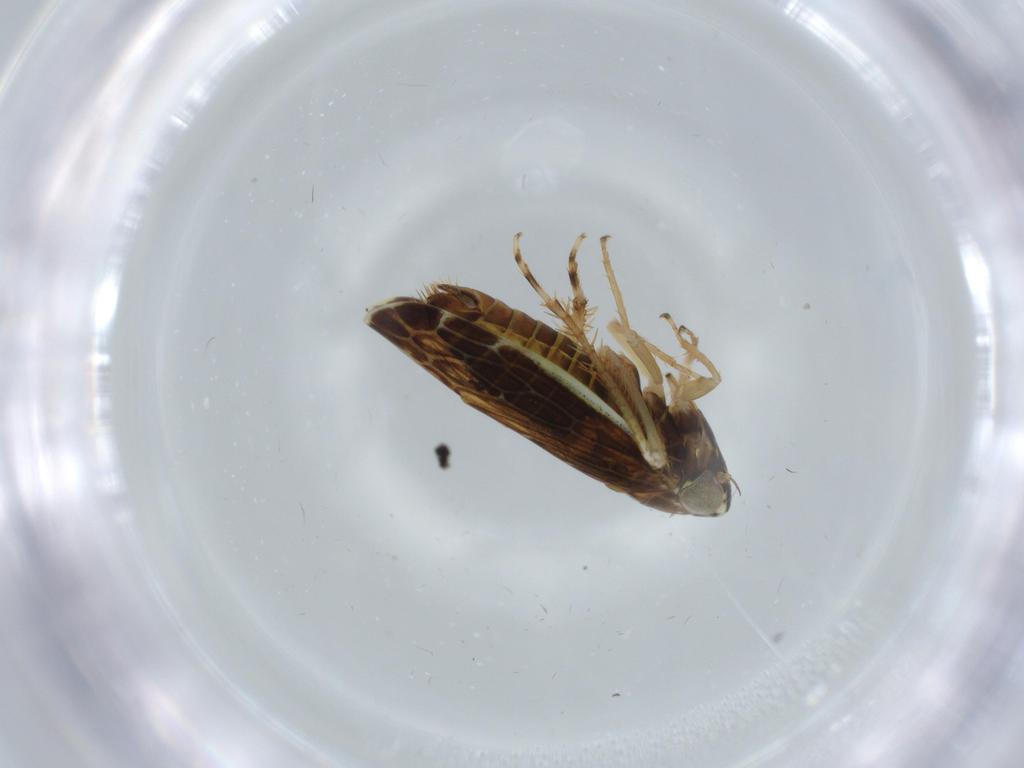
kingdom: Animalia
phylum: Arthropoda
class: Insecta
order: Hemiptera
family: Cicadellidae
